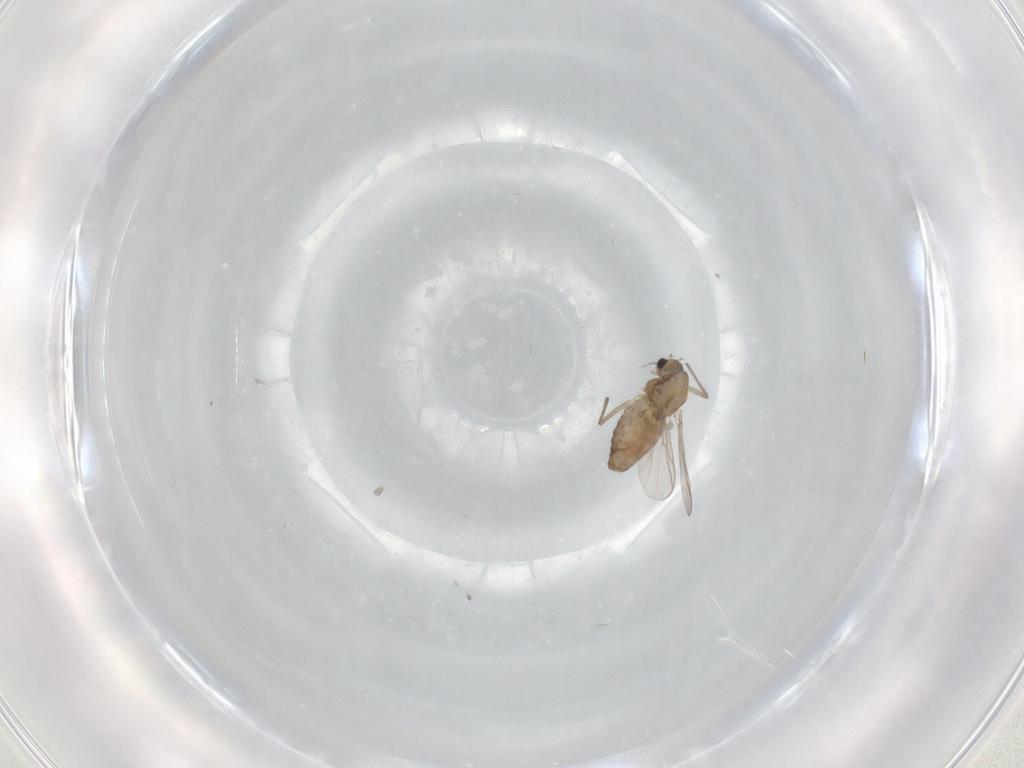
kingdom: Animalia
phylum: Arthropoda
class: Insecta
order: Diptera
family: Chironomidae
